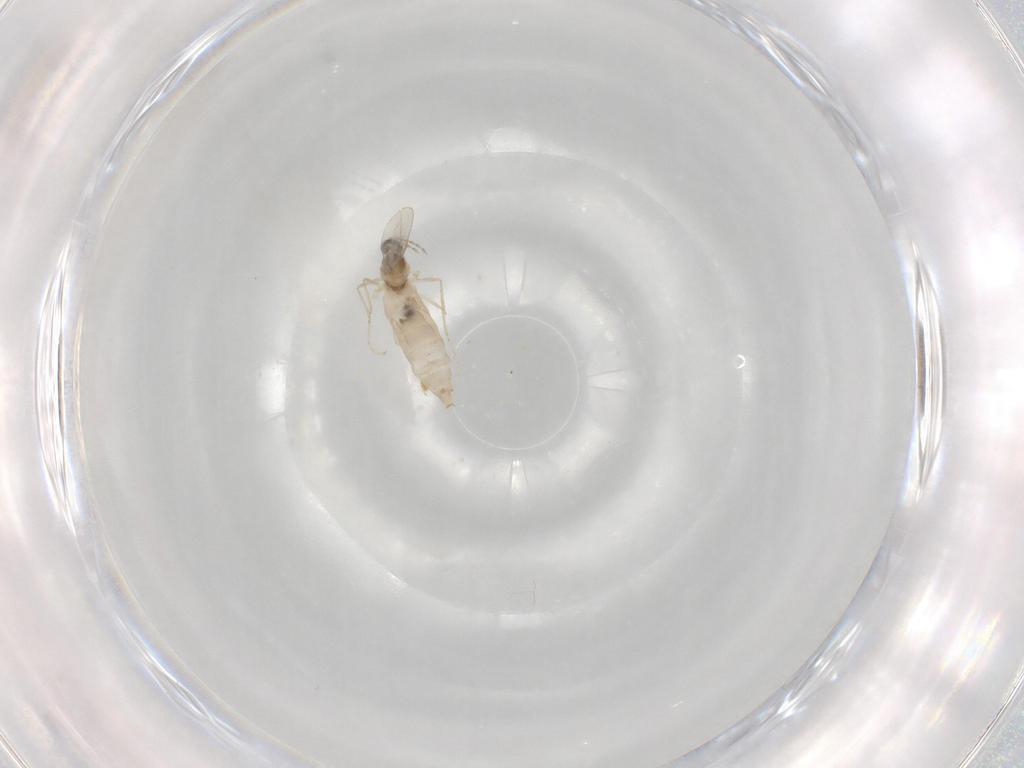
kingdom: Animalia
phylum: Arthropoda
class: Insecta
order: Diptera
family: Cecidomyiidae
